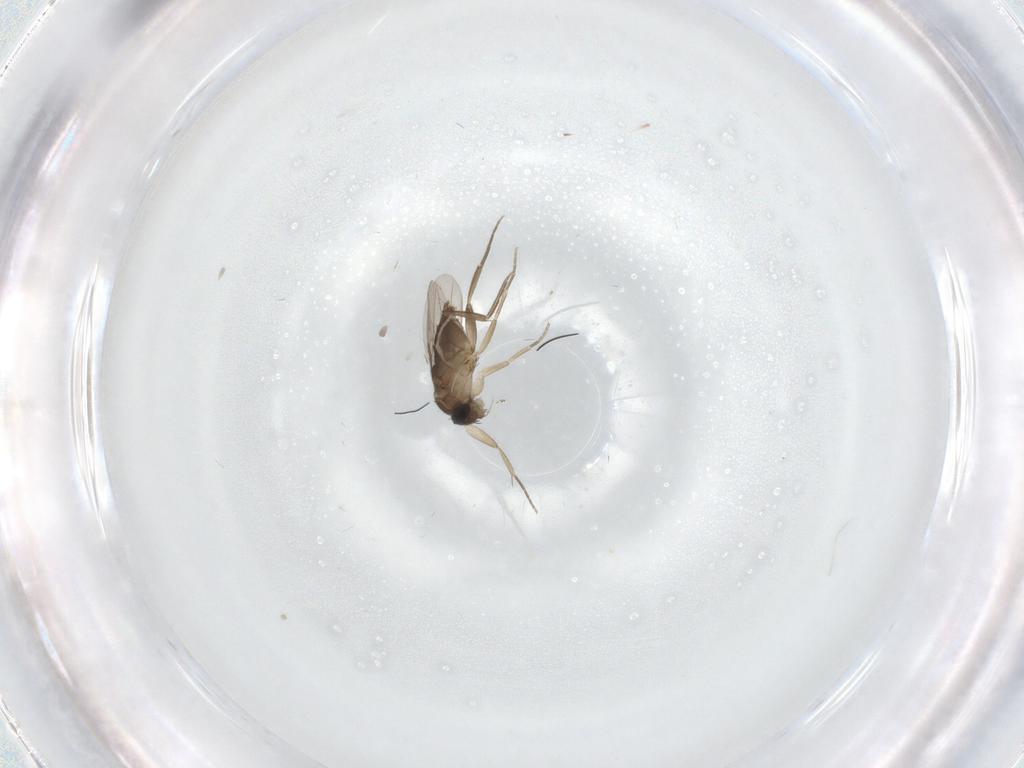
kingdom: Animalia
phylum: Arthropoda
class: Insecta
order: Diptera
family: Phoridae
